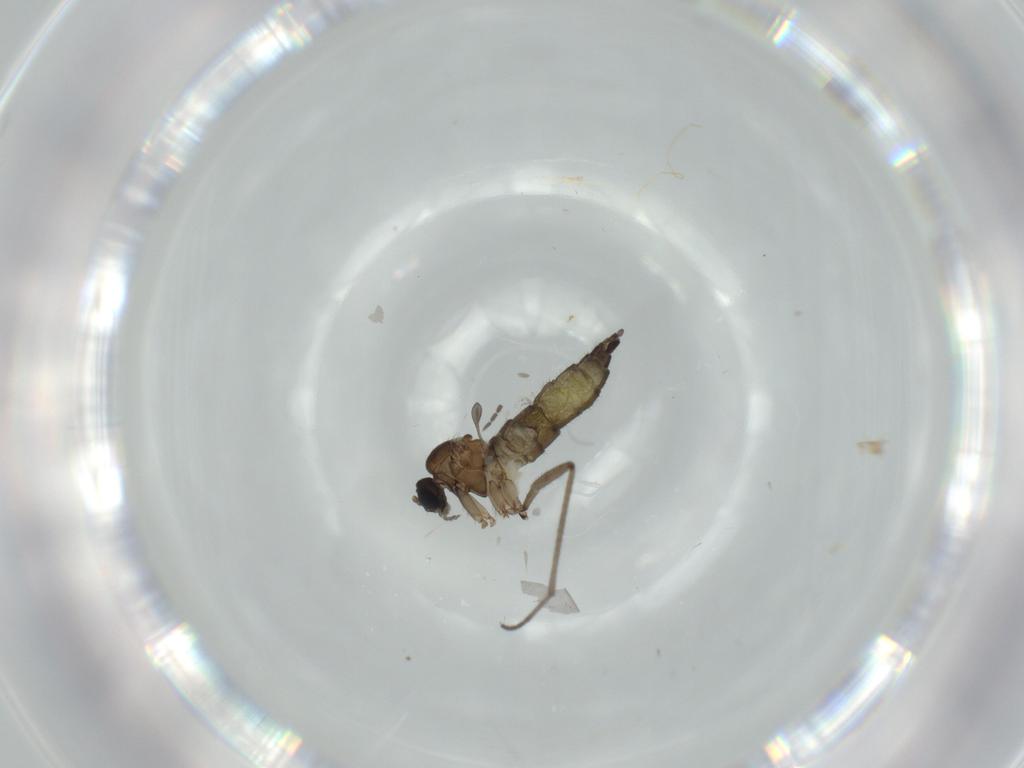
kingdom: Animalia
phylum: Arthropoda
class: Insecta
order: Diptera
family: Sciaridae
